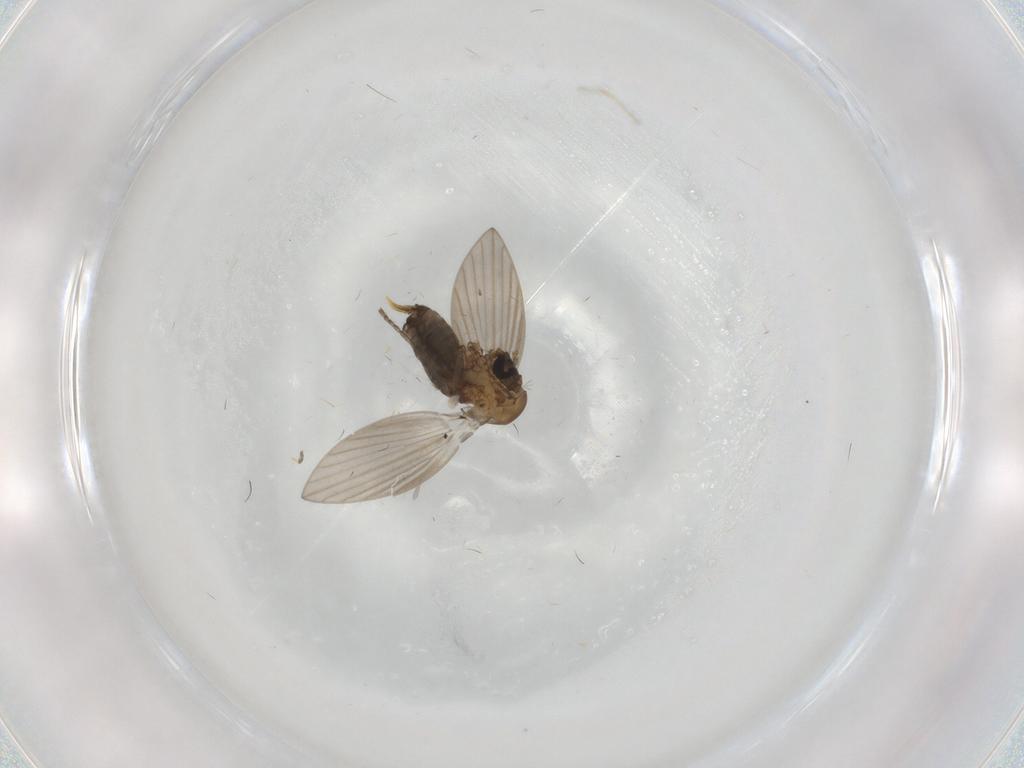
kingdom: Animalia
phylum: Arthropoda
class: Insecta
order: Diptera
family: Psychodidae
